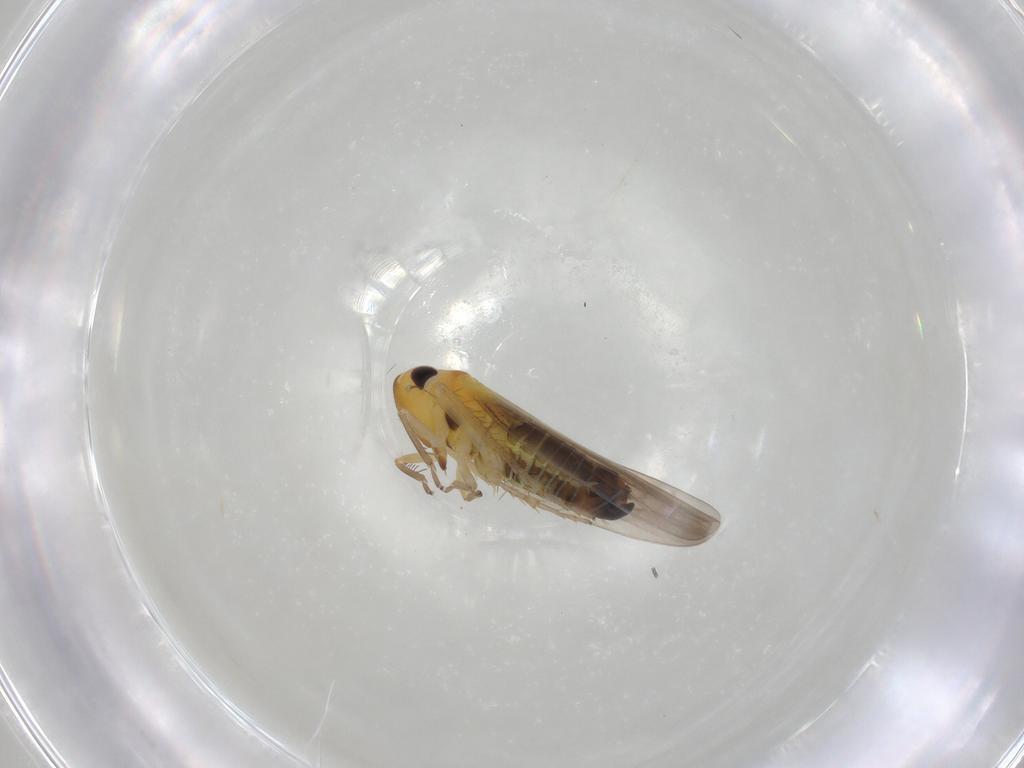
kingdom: Animalia
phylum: Arthropoda
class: Insecta
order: Hemiptera
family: Cicadellidae
